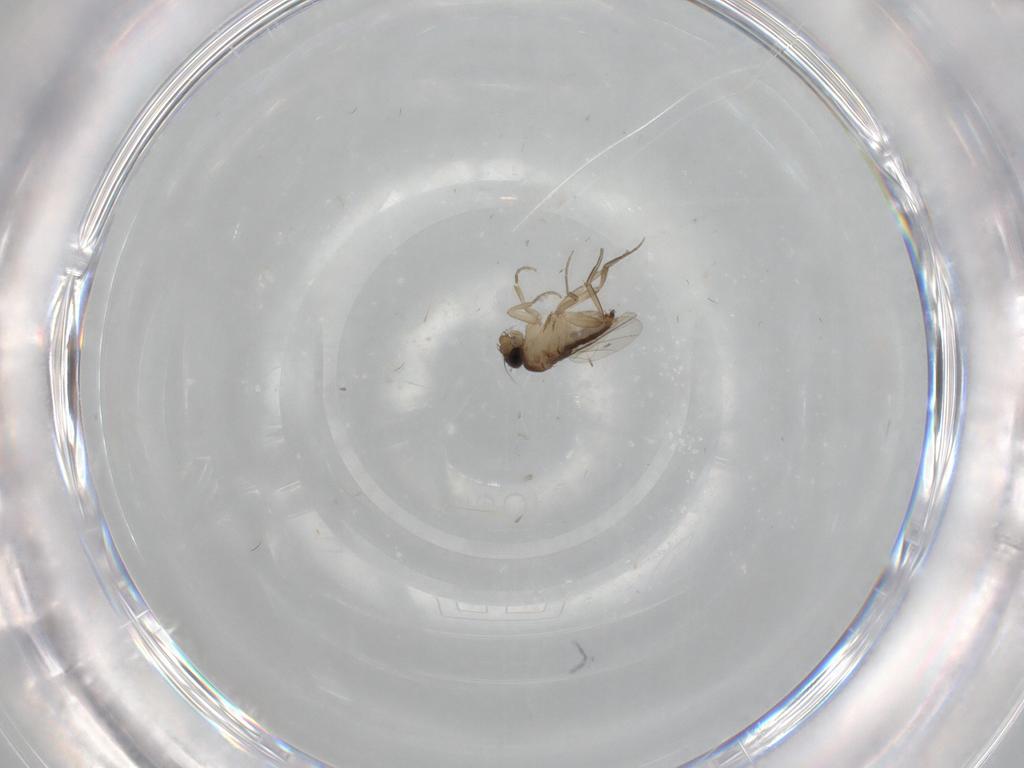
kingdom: Animalia
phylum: Arthropoda
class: Insecta
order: Diptera
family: Phoridae
